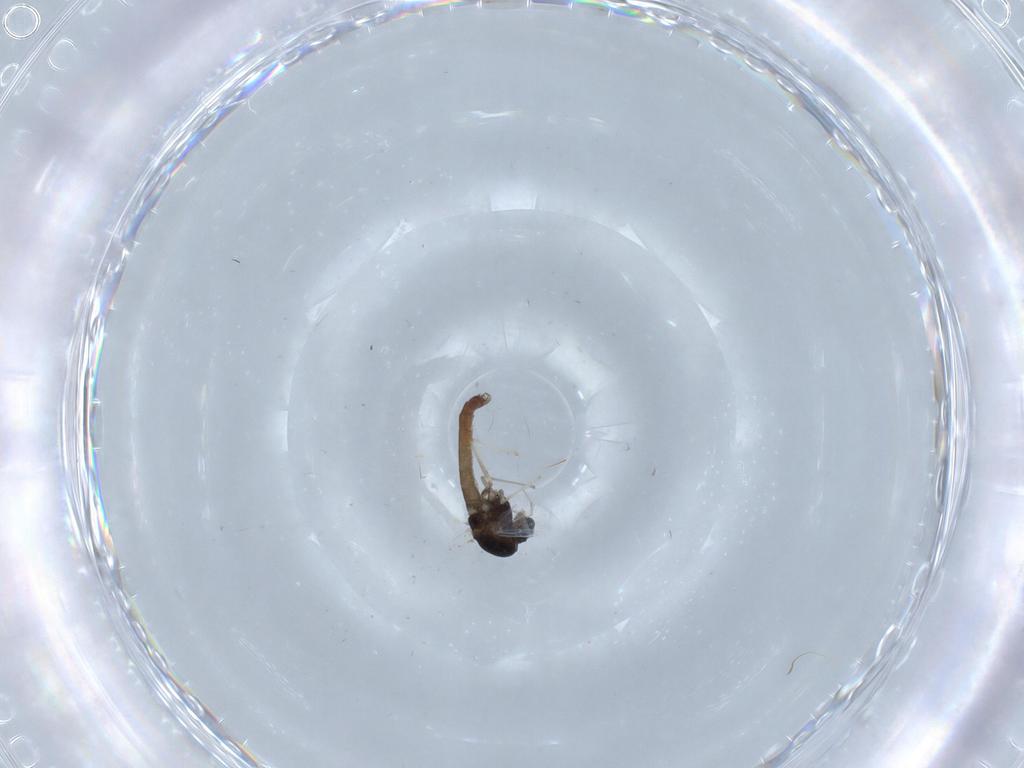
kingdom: Animalia
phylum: Arthropoda
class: Insecta
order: Diptera
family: Chironomidae
